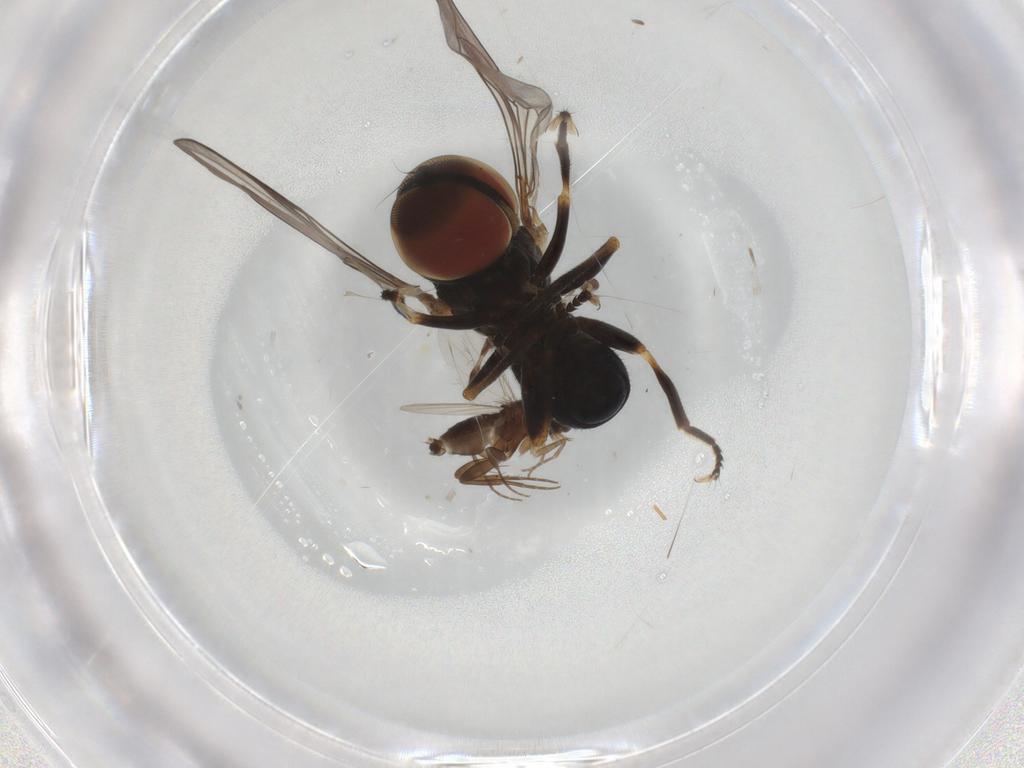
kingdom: Animalia
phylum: Arthropoda
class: Insecta
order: Diptera
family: Pipunculidae
